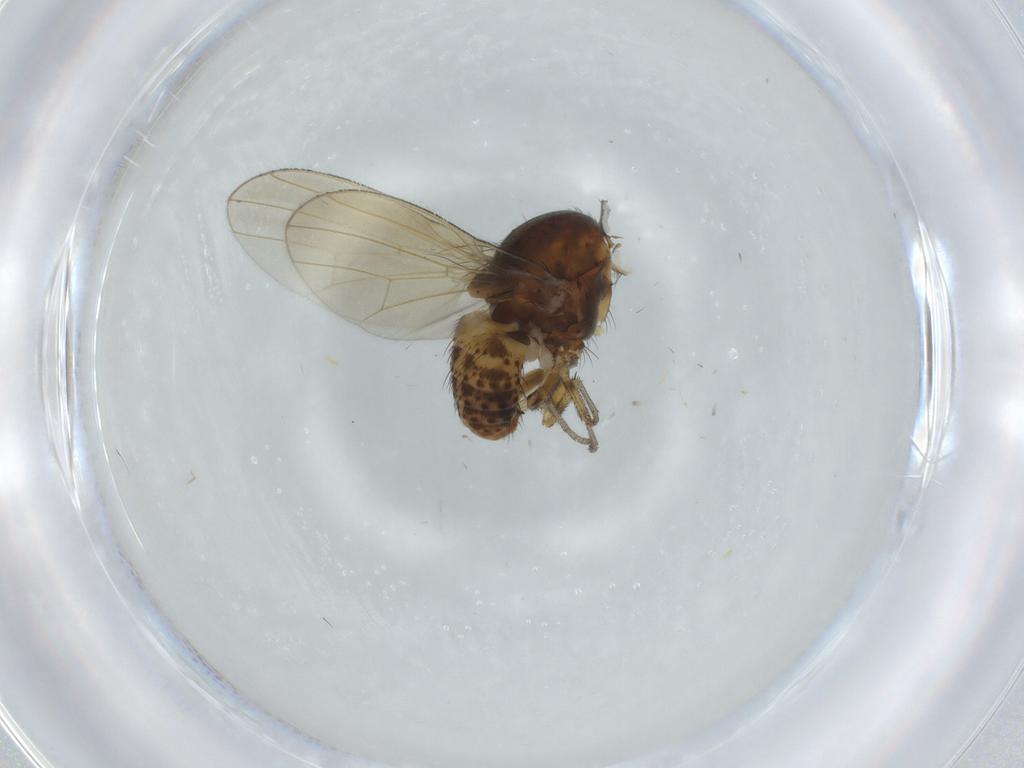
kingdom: Animalia
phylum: Arthropoda
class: Insecta
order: Diptera
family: Lauxaniidae
